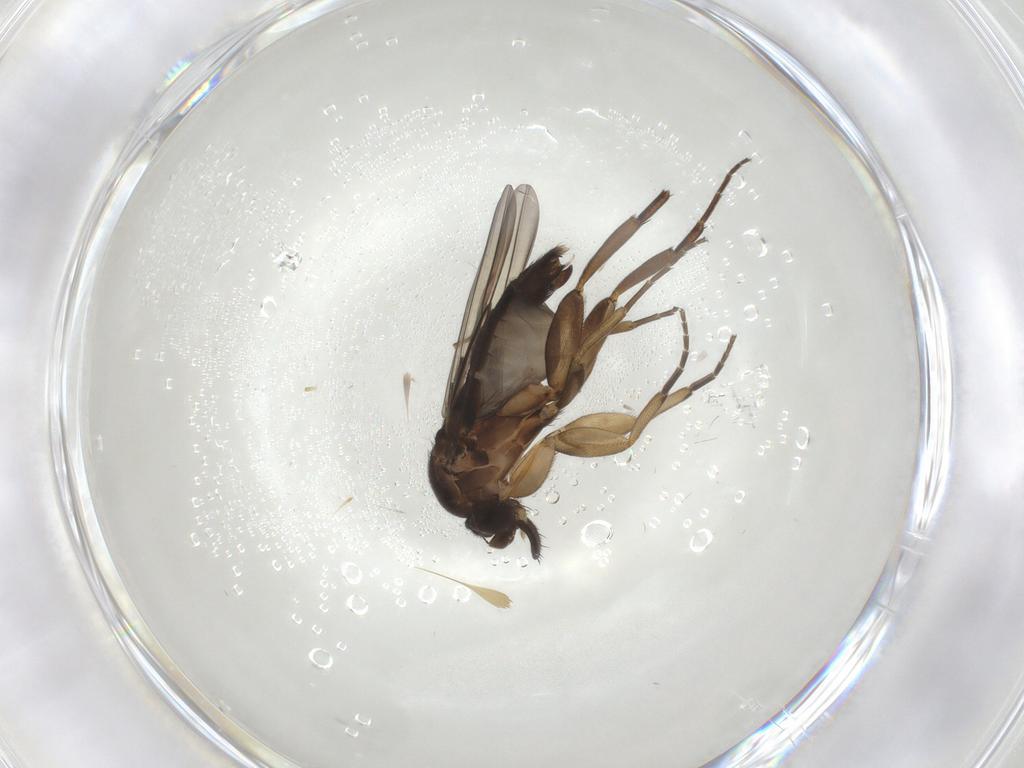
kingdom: Animalia
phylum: Arthropoda
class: Insecta
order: Diptera
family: Phoridae
